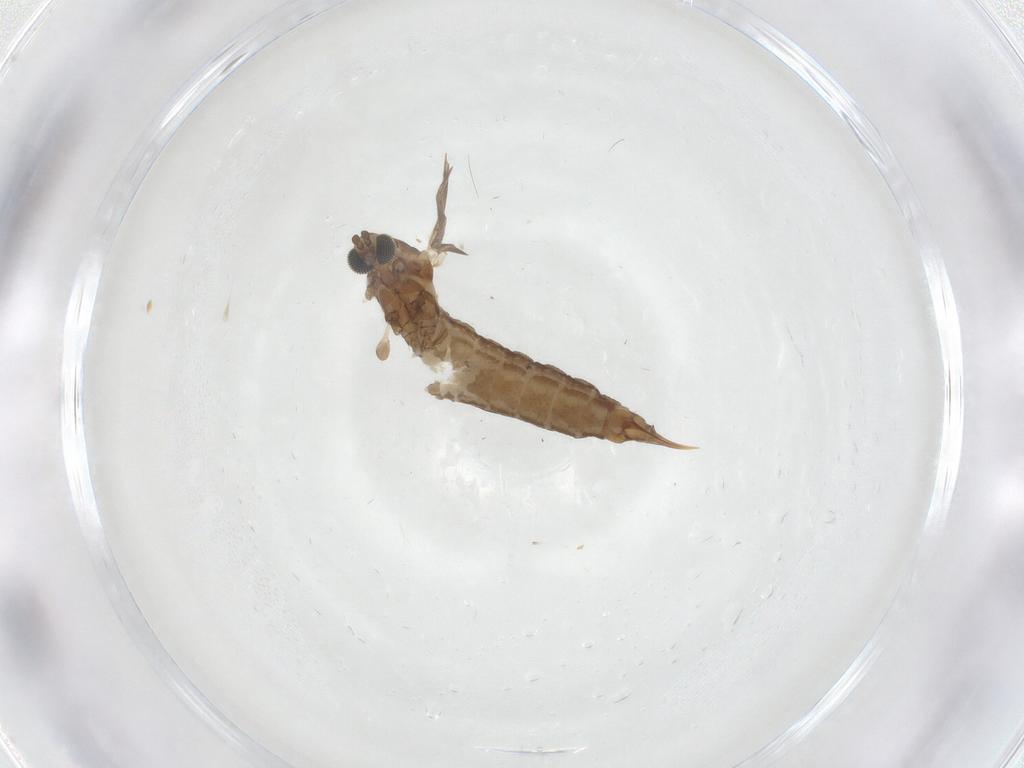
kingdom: Animalia
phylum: Arthropoda
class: Insecta
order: Diptera
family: Limoniidae
